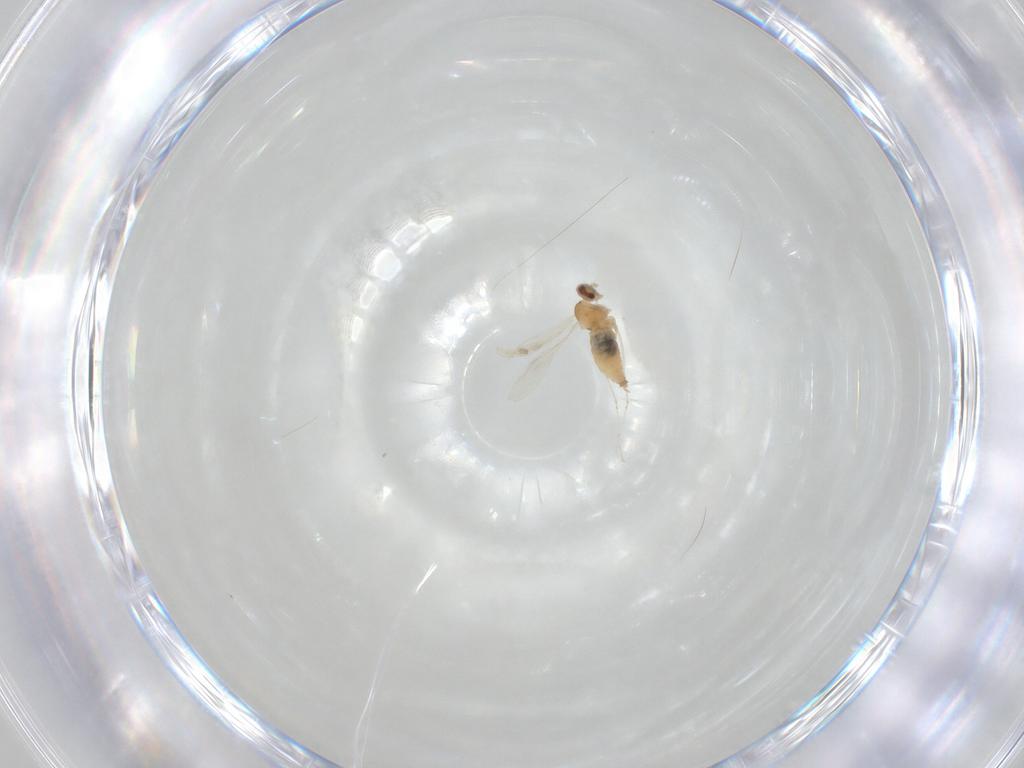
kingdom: Animalia
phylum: Arthropoda
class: Insecta
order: Diptera
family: Cecidomyiidae
